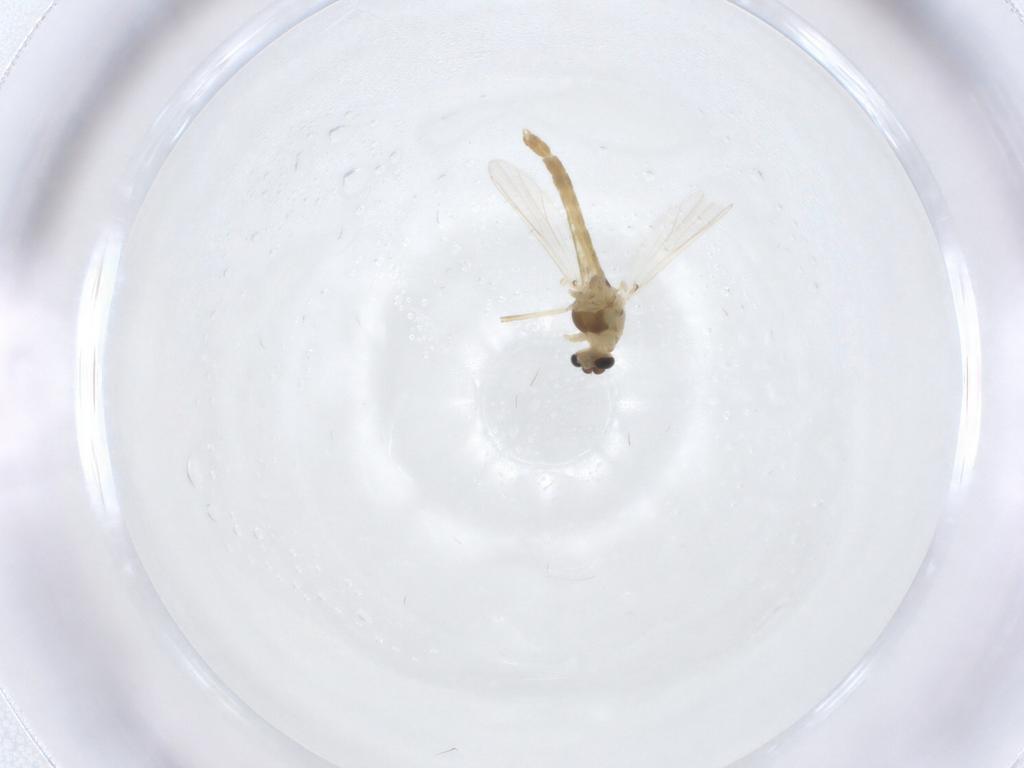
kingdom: Animalia
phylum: Arthropoda
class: Insecta
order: Diptera
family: Chironomidae
